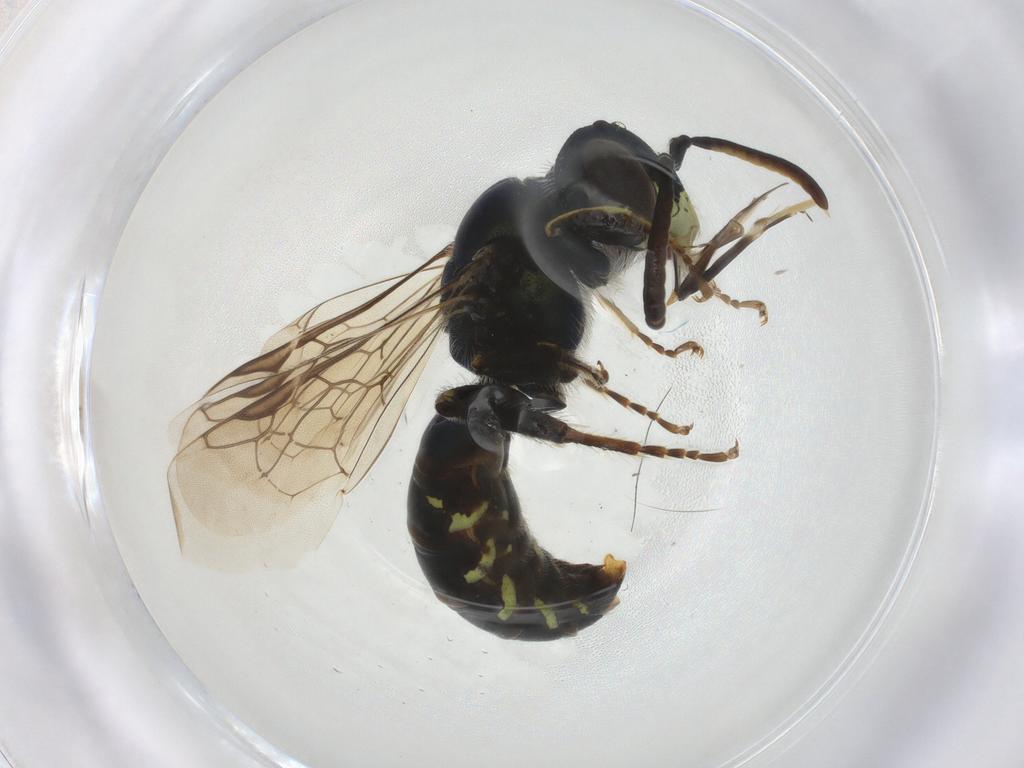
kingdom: Animalia
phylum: Arthropoda
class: Insecta
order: Hymenoptera
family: Andrenidae
